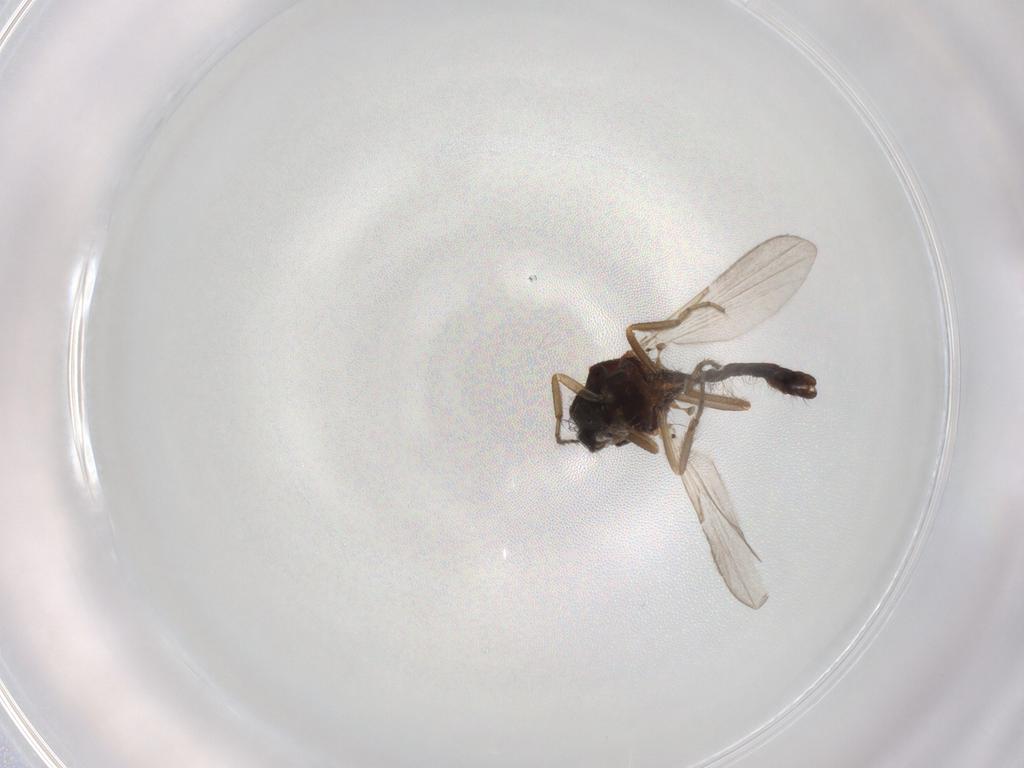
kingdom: Animalia
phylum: Arthropoda
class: Insecta
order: Diptera
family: Ceratopogonidae
